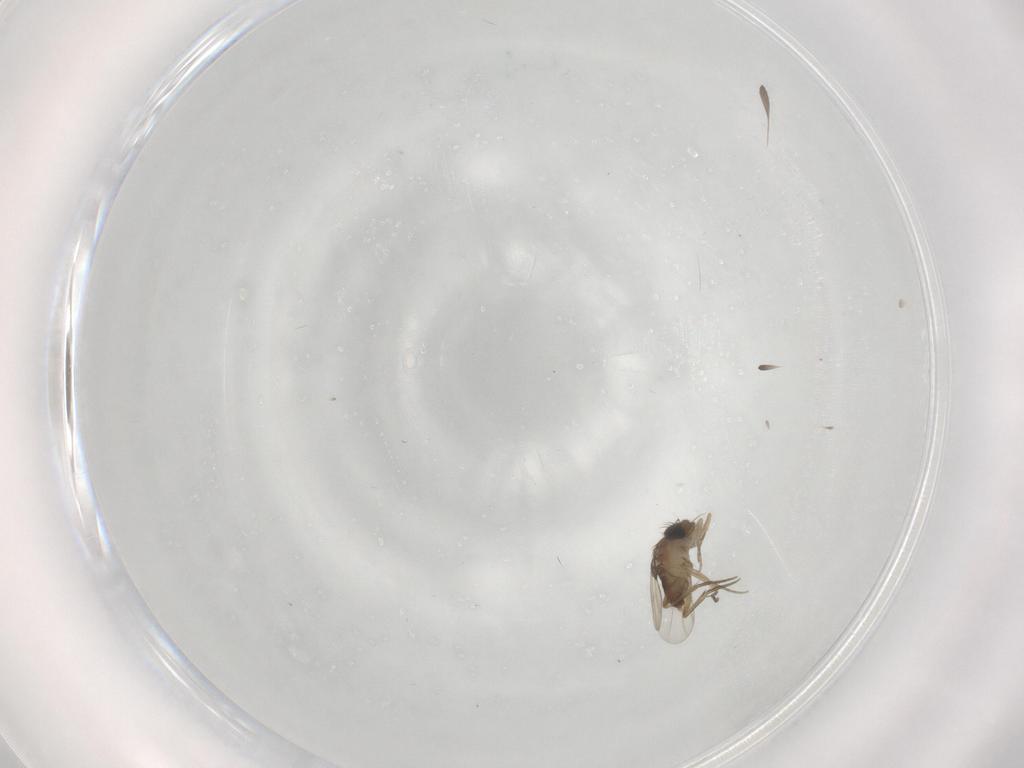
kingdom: Animalia
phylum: Arthropoda
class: Insecta
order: Diptera
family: Phoridae
